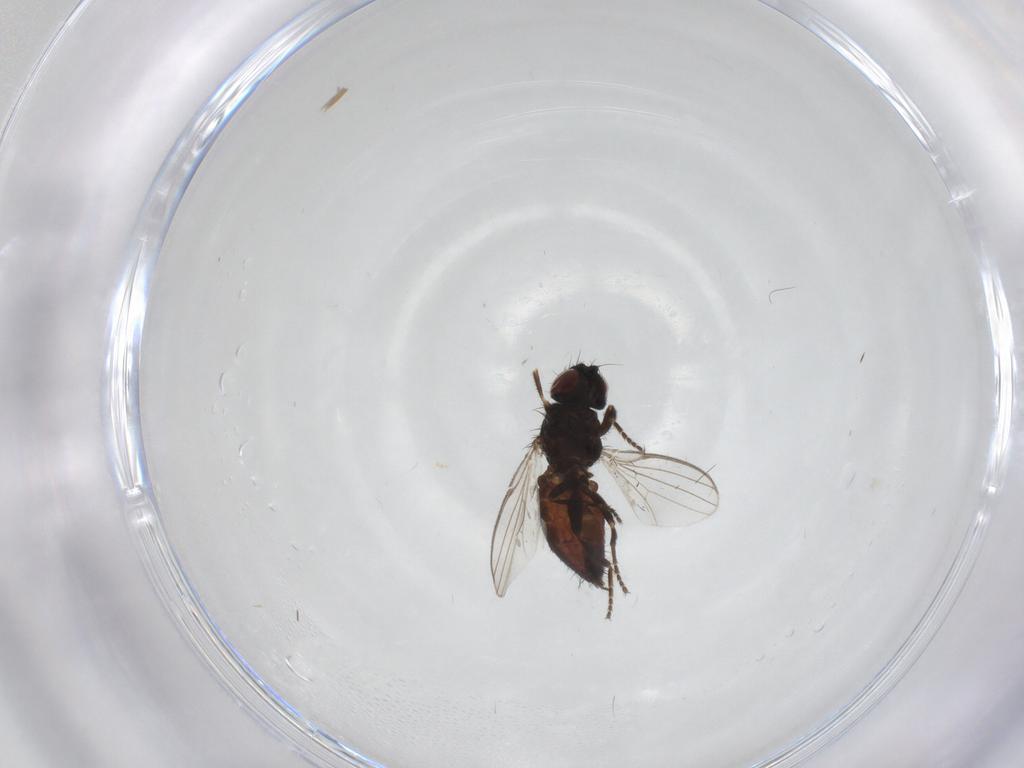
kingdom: Animalia
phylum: Arthropoda
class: Insecta
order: Diptera
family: Milichiidae
